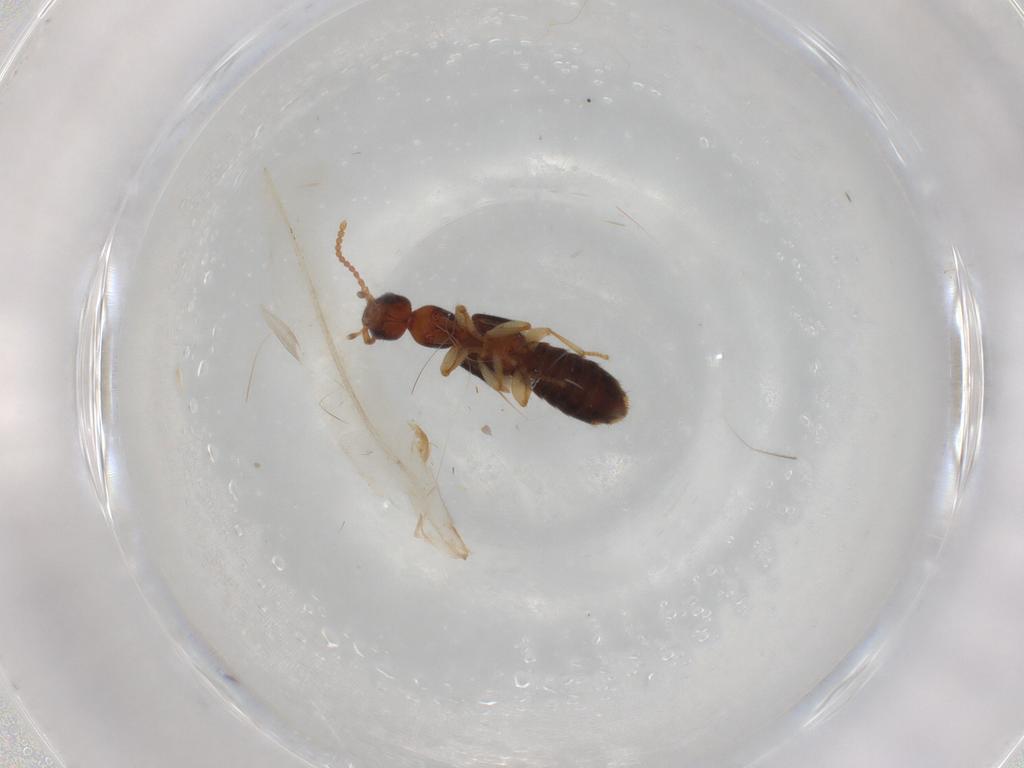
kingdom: Animalia
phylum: Arthropoda
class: Insecta
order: Coleoptera
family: Staphylinidae
